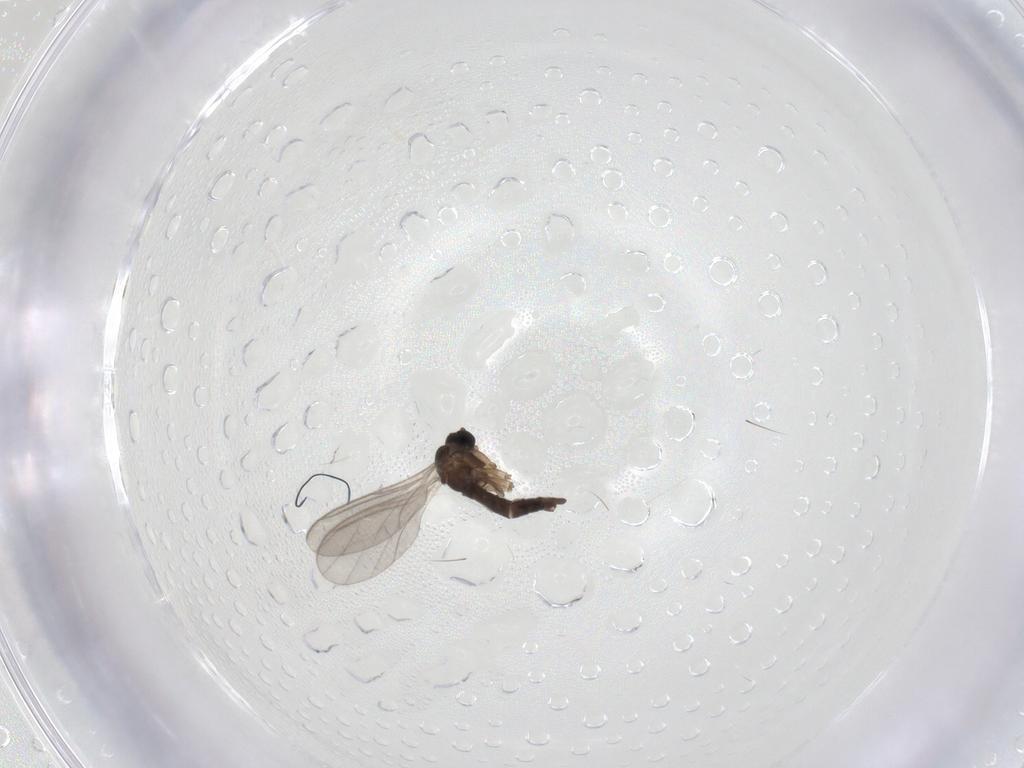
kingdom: Animalia
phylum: Arthropoda
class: Insecta
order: Diptera
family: Sciaridae
